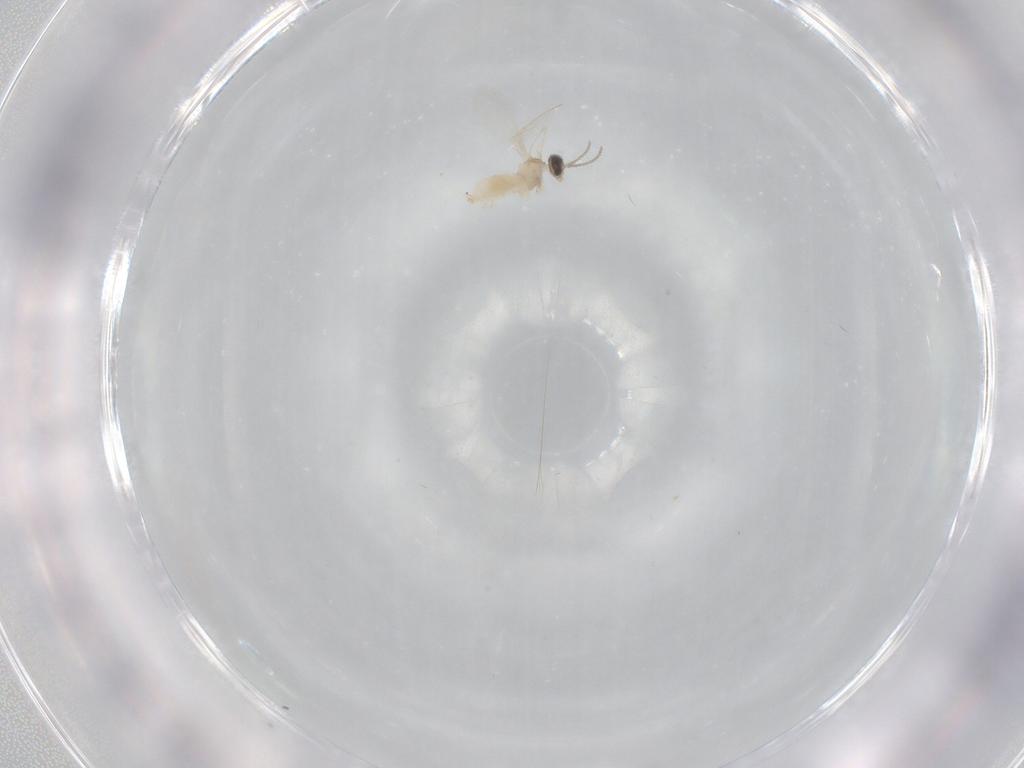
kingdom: Animalia
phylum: Arthropoda
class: Insecta
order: Diptera
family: Cecidomyiidae
